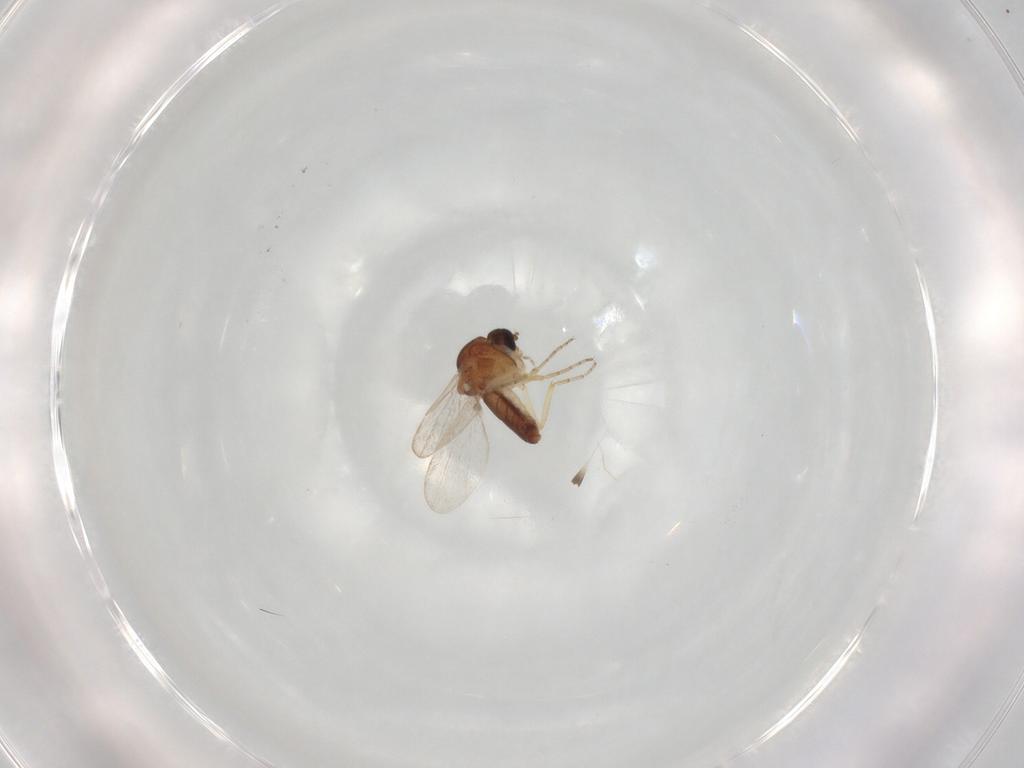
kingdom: Animalia
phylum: Arthropoda
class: Insecta
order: Diptera
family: Ceratopogonidae
